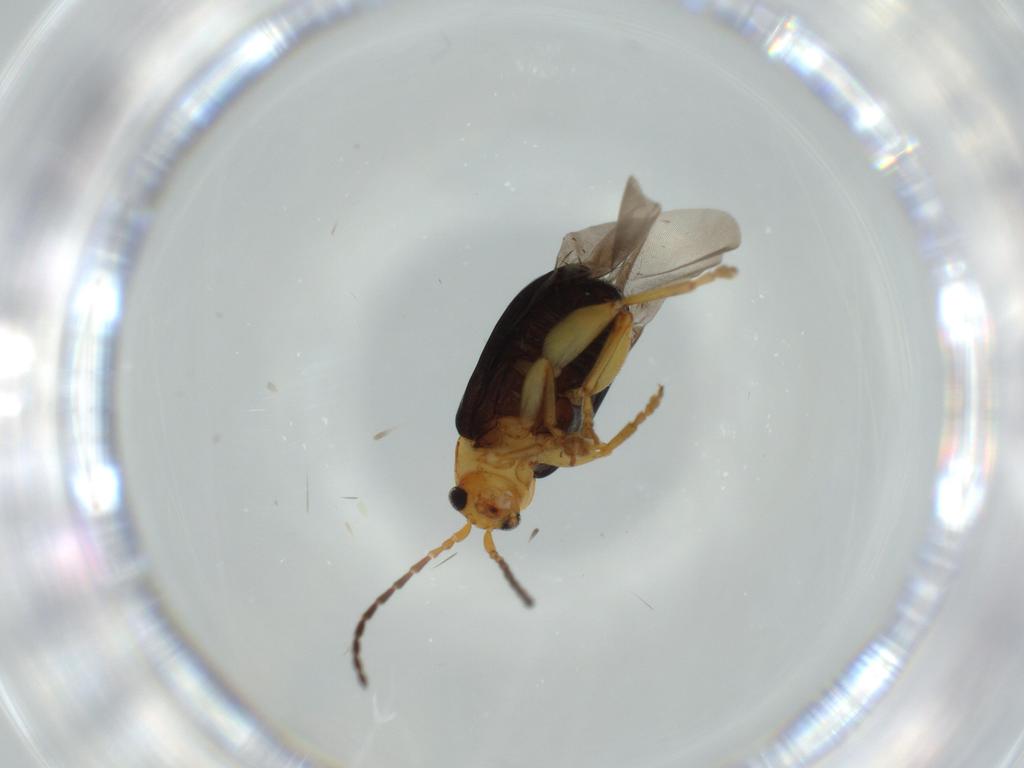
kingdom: Animalia
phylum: Arthropoda
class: Insecta
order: Coleoptera
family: Chrysomelidae
